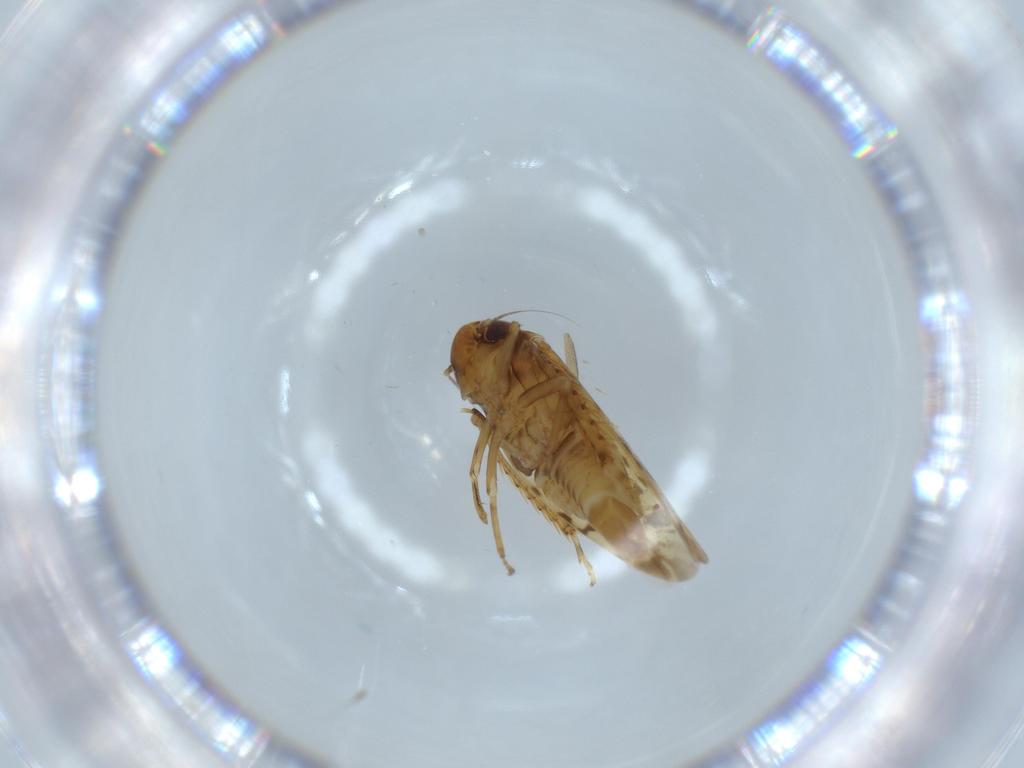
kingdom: Animalia
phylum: Arthropoda
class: Insecta
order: Hemiptera
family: Cicadellidae
